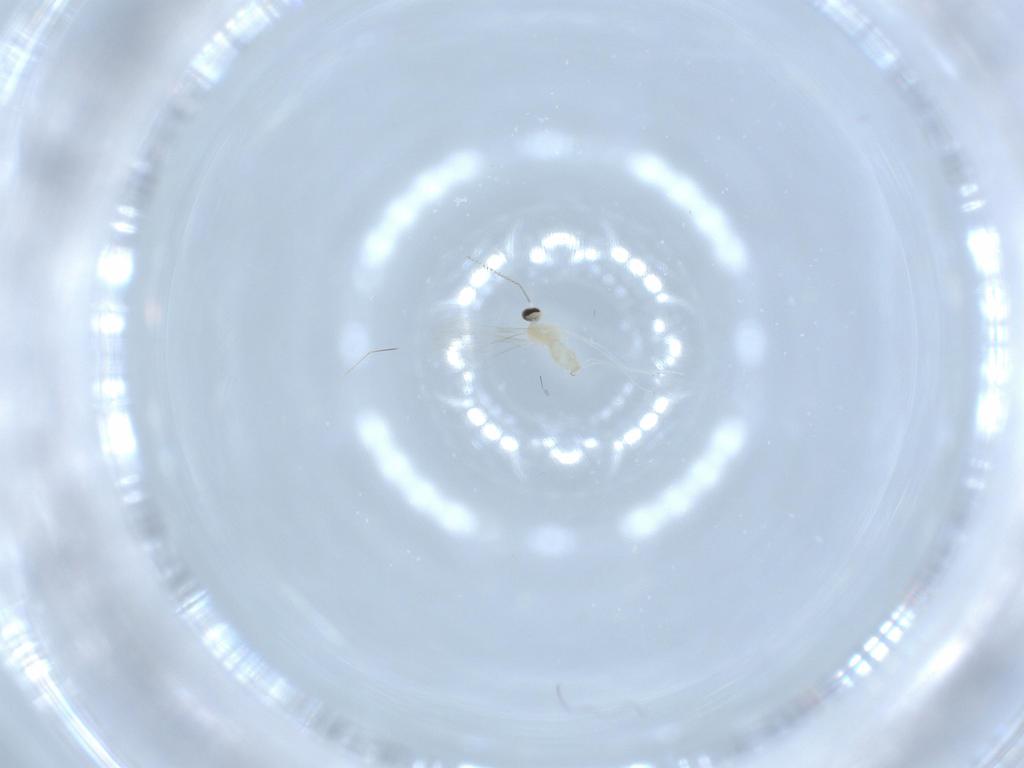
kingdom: Animalia
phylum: Arthropoda
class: Insecta
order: Diptera
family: Cecidomyiidae
